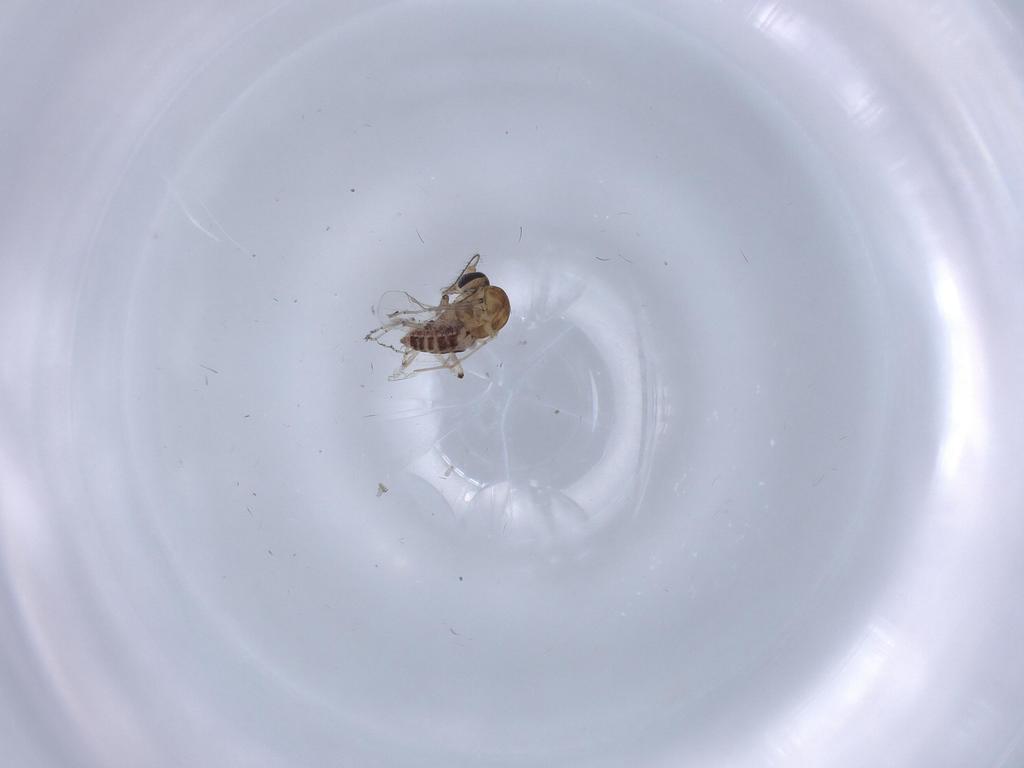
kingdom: Animalia
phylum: Arthropoda
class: Insecta
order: Diptera
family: Ceratopogonidae
